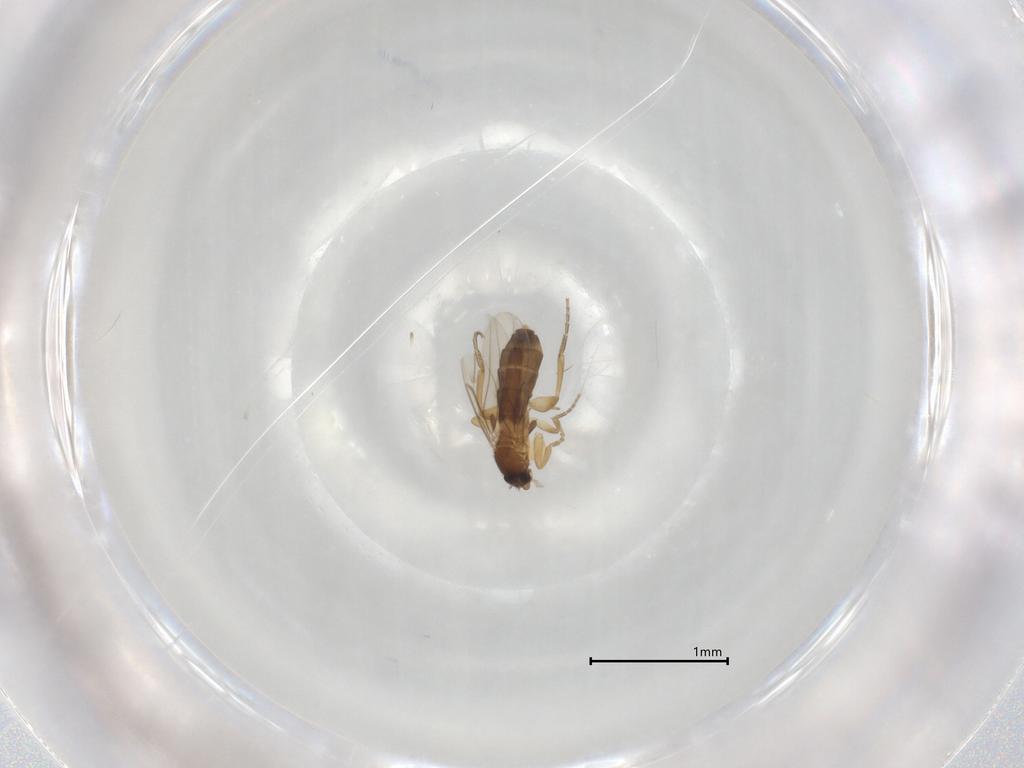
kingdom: Animalia
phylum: Arthropoda
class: Insecta
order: Diptera
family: Phoridae
